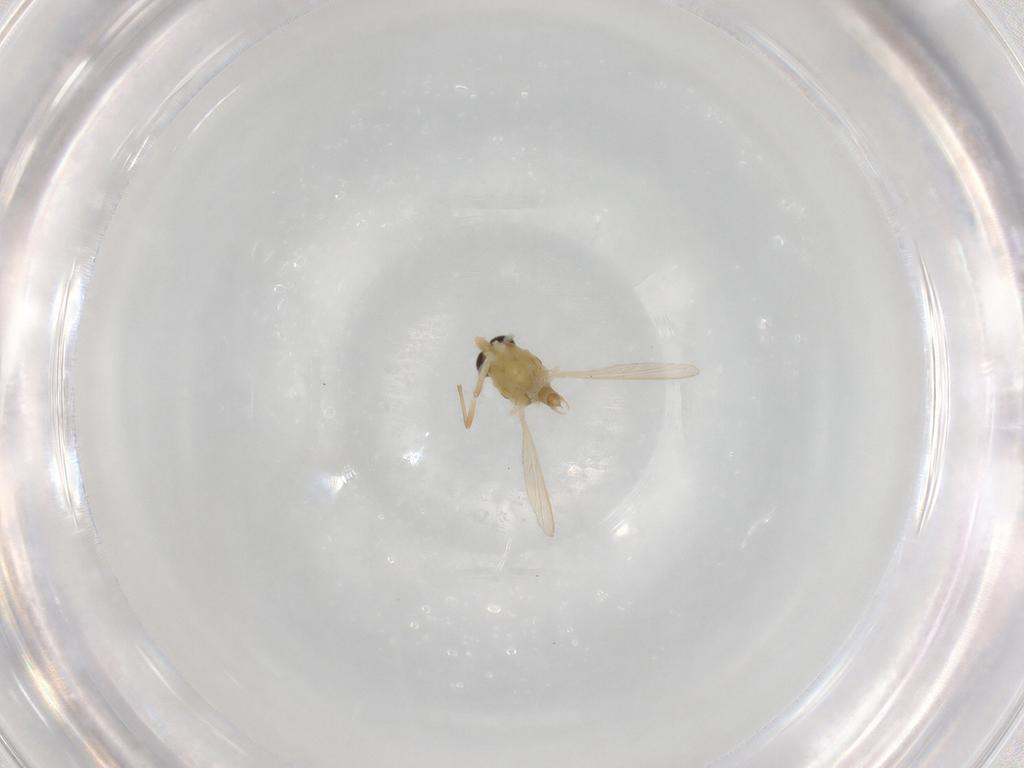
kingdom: Animalia
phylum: Arthropoda
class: Insecta
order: Diptera
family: Chironomidae
